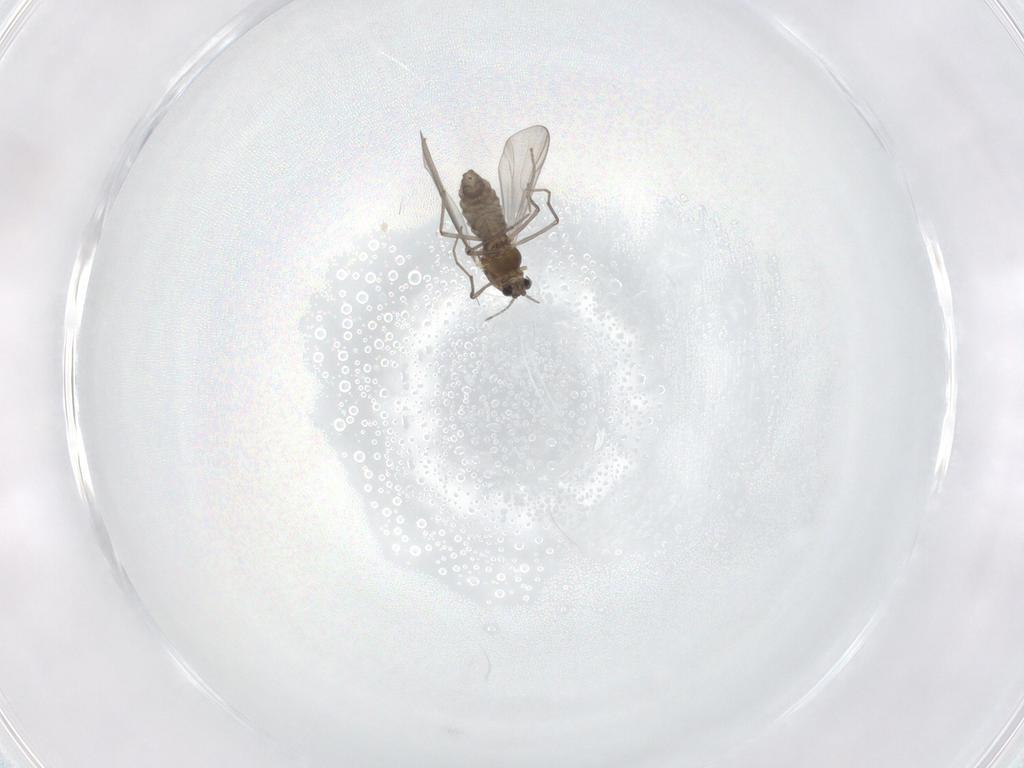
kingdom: Animalia
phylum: Arthropoda
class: Insecta
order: Diptera
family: Chironomidae
